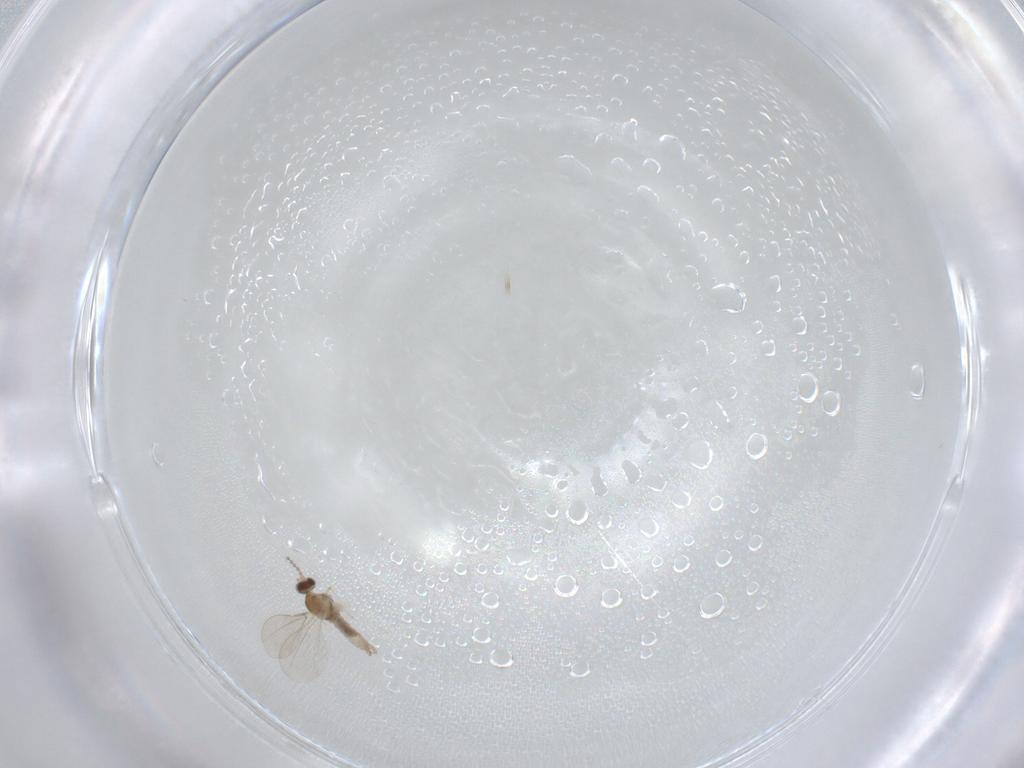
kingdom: Animalia
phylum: Arthropoda
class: Insecta
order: Diptera
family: Cecidomyiidae
